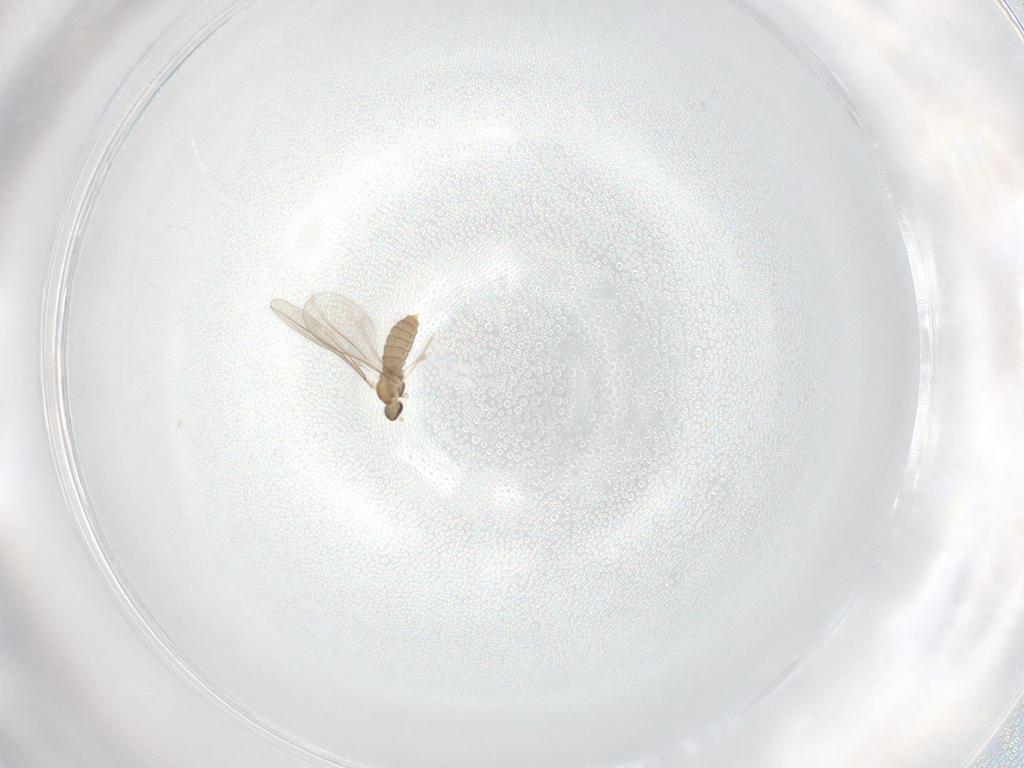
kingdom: Animalia
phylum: Arthropoda
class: Insecta
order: Diptera
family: Cecidomyiidae
